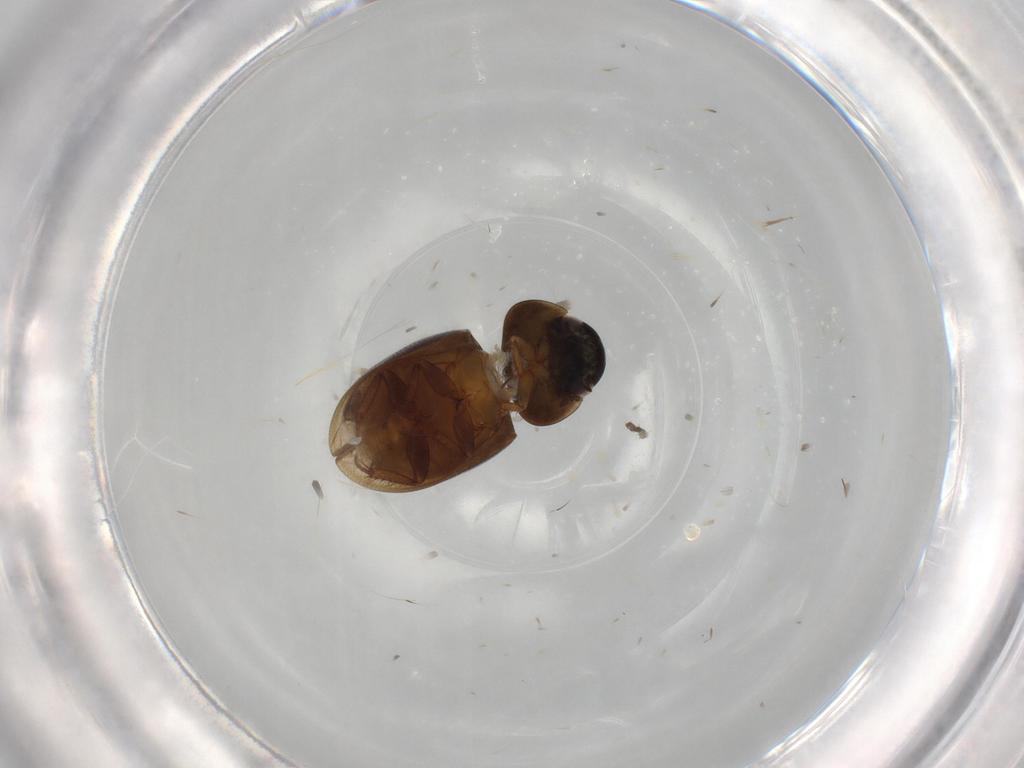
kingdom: Animalia
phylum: Arthropoda
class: Insecta
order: Coleoptera
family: Hydrophilidae
